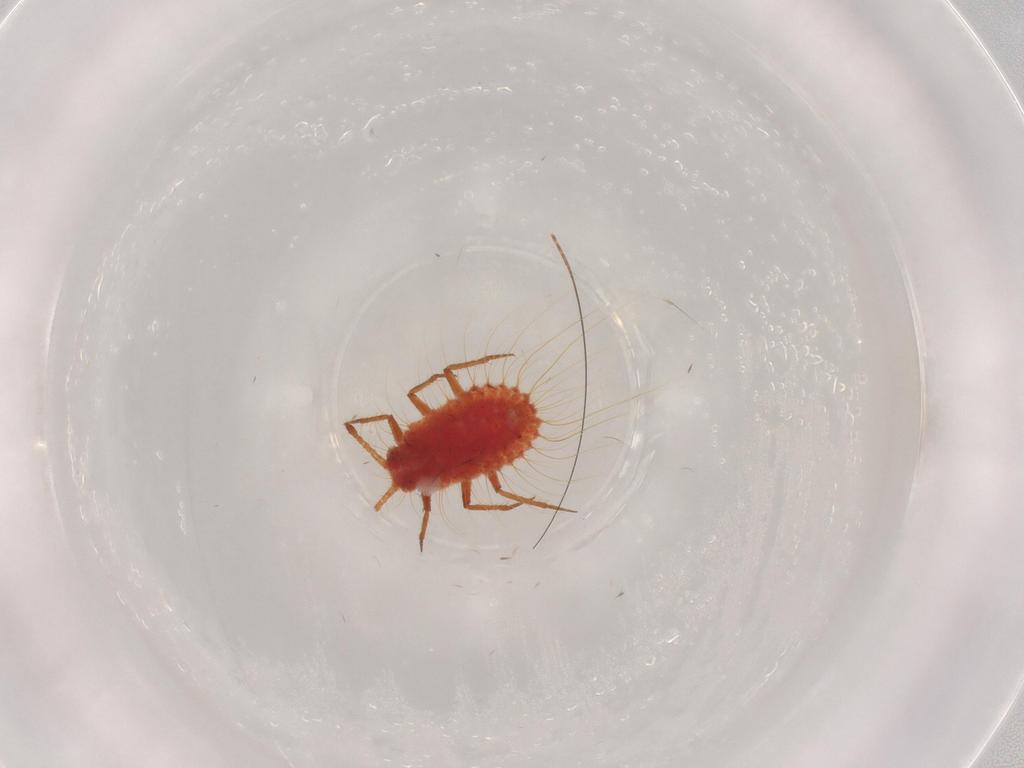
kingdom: Animalia
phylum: Arthropoda
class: Insecta
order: Hemiptera
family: Cicadellidae
